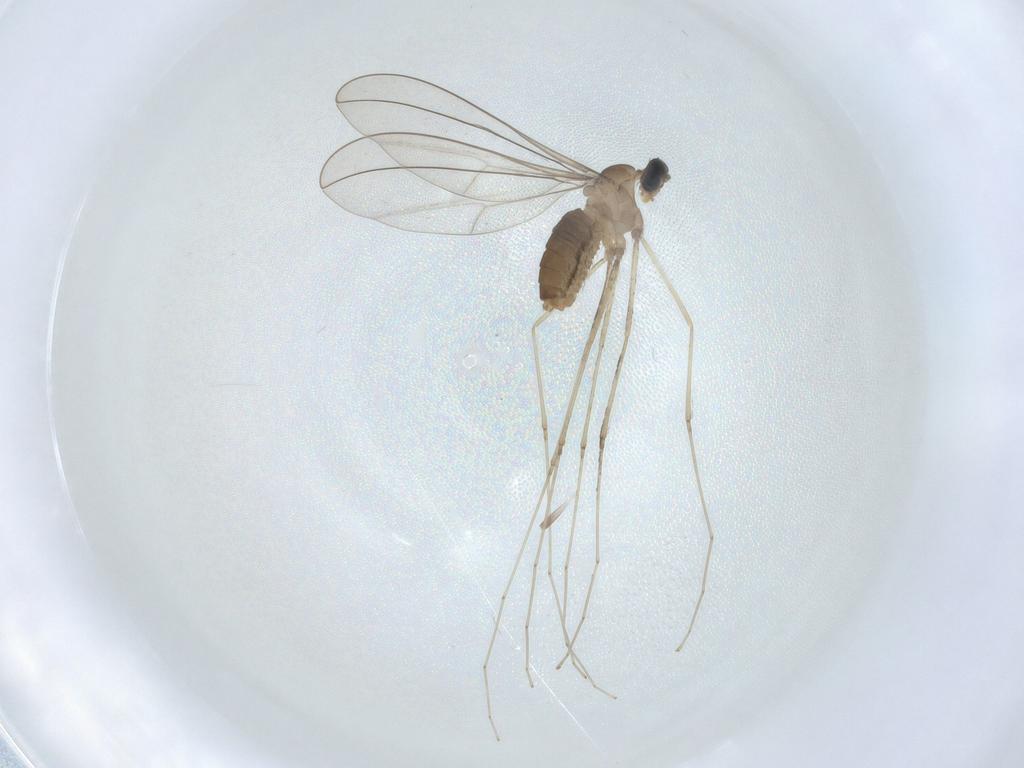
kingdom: Animalia
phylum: Arthropoda
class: Insecta
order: Diptera
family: Cecidomyiidae
